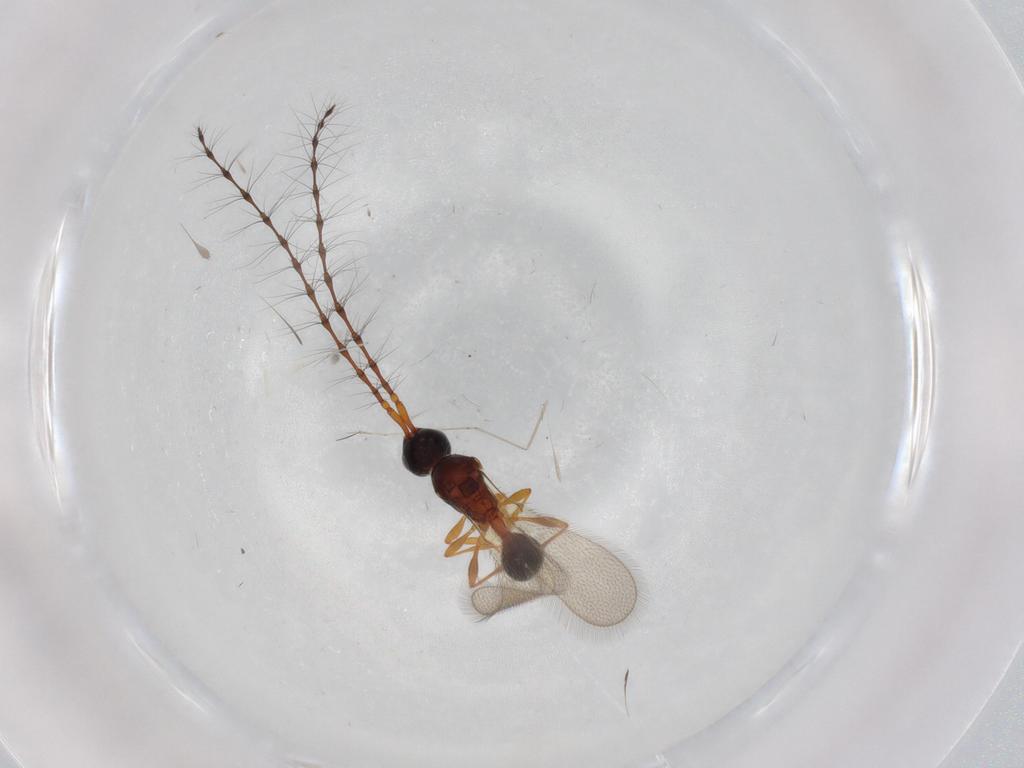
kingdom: Animalia
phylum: Arthropoda
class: Insecta
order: Hymenoptera
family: Diapriidae
